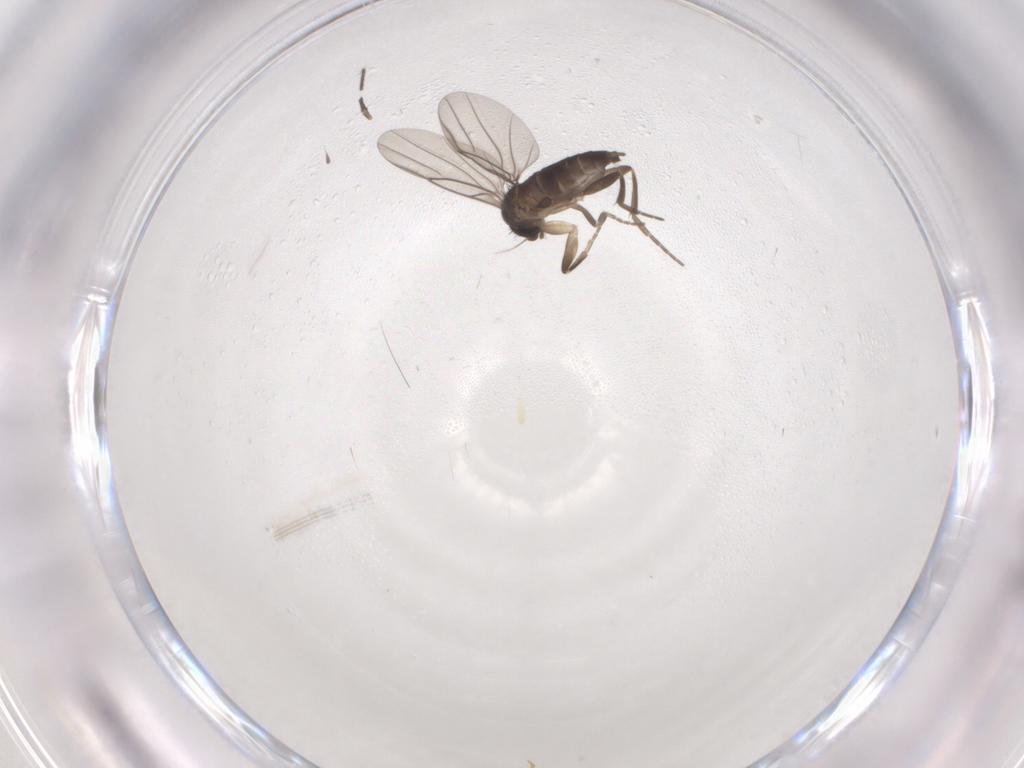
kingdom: Animalia
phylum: Arthropoda
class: Insecta
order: Diptera
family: Chironomidae
